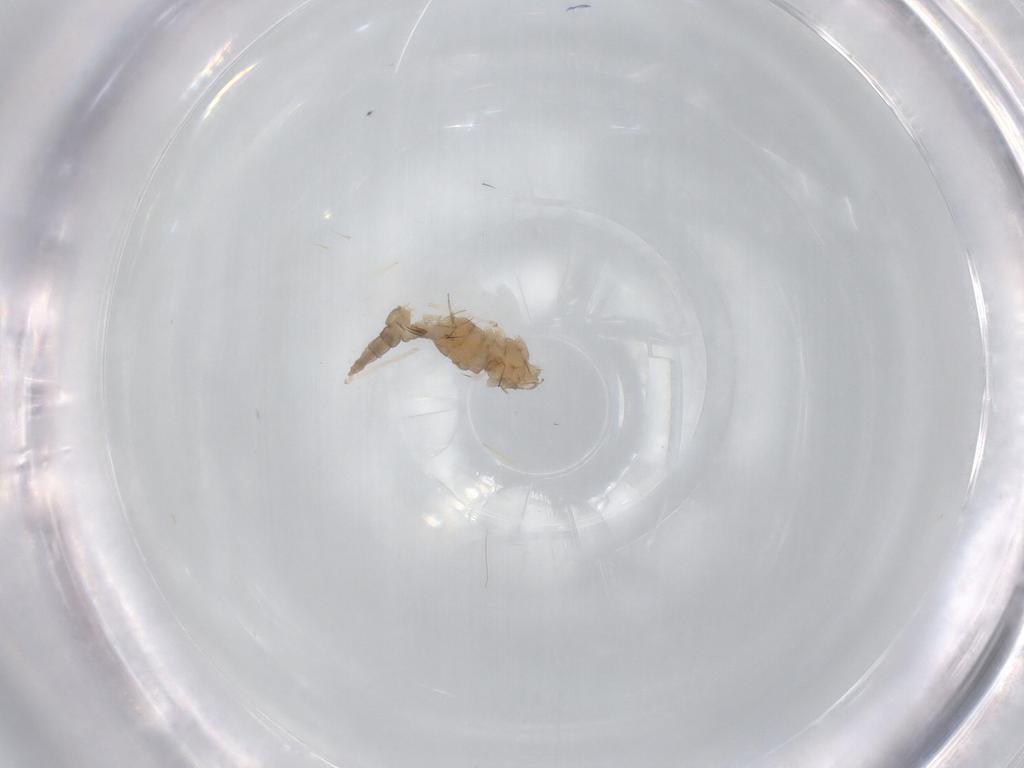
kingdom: Animalia
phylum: Arthropoda
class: Insecta
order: Diptera
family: Cecidomyiidae
